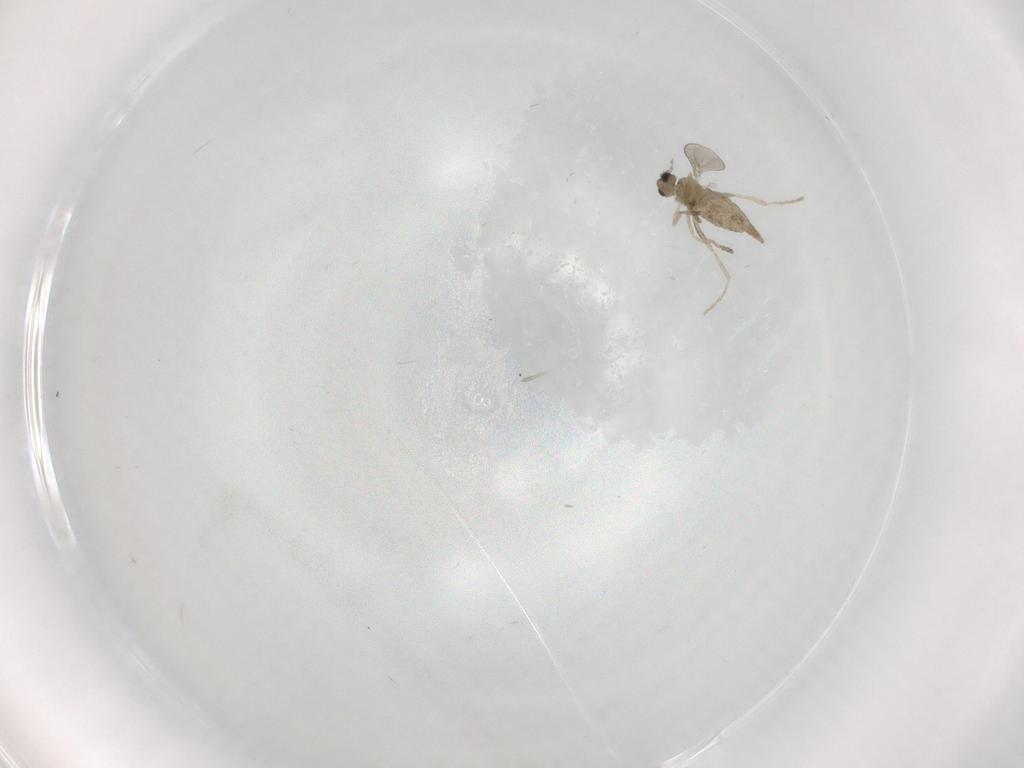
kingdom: Animalia
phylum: Arthropoda
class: Insecta
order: Diptera
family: Cecidomyiidae
